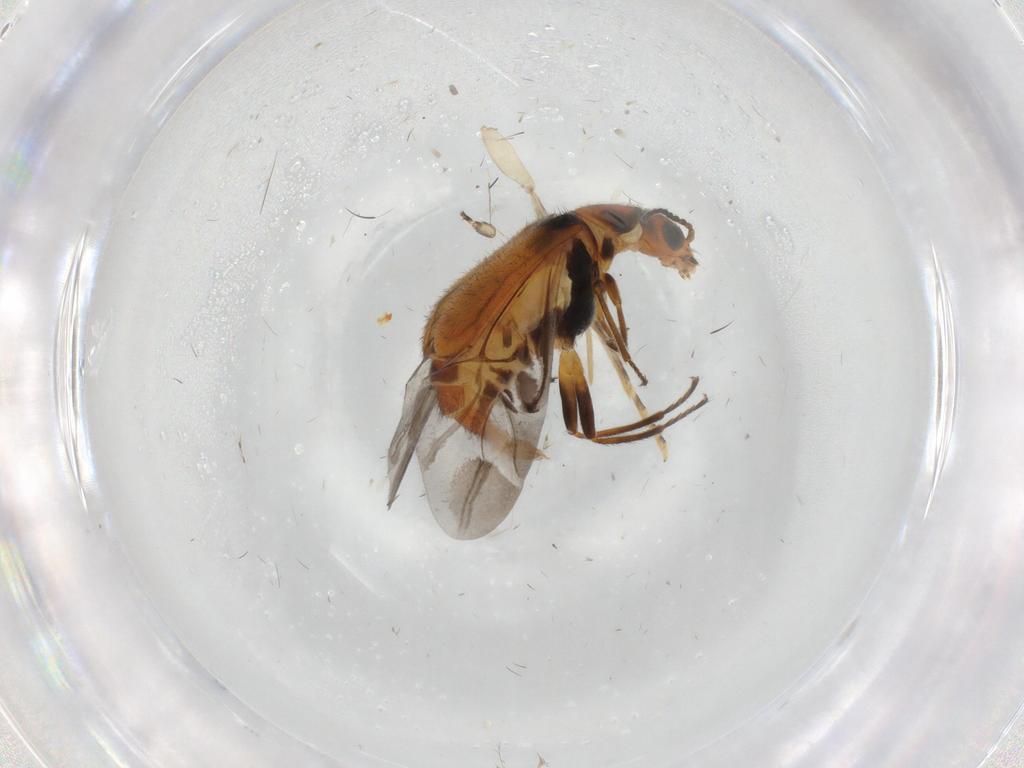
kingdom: Animalia
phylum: Arthropoda
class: Insecta
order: Coleoptera
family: Melyridae
